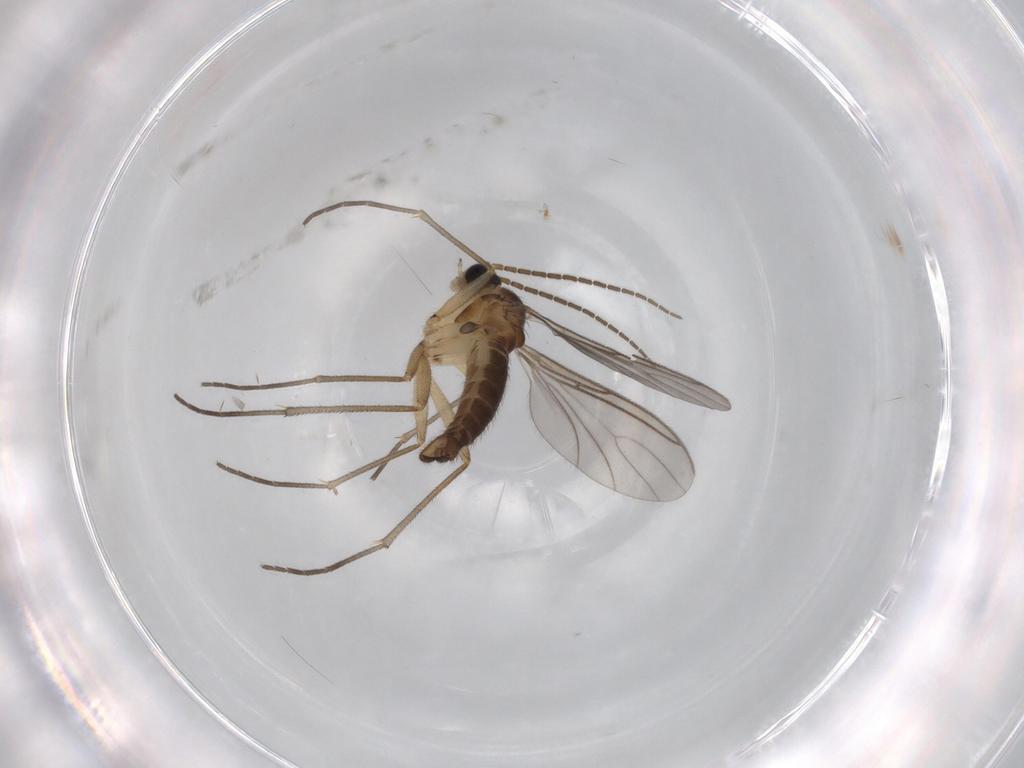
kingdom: Animalia
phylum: Arthropoda
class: Insecta
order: Diptera
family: Sciaridae
